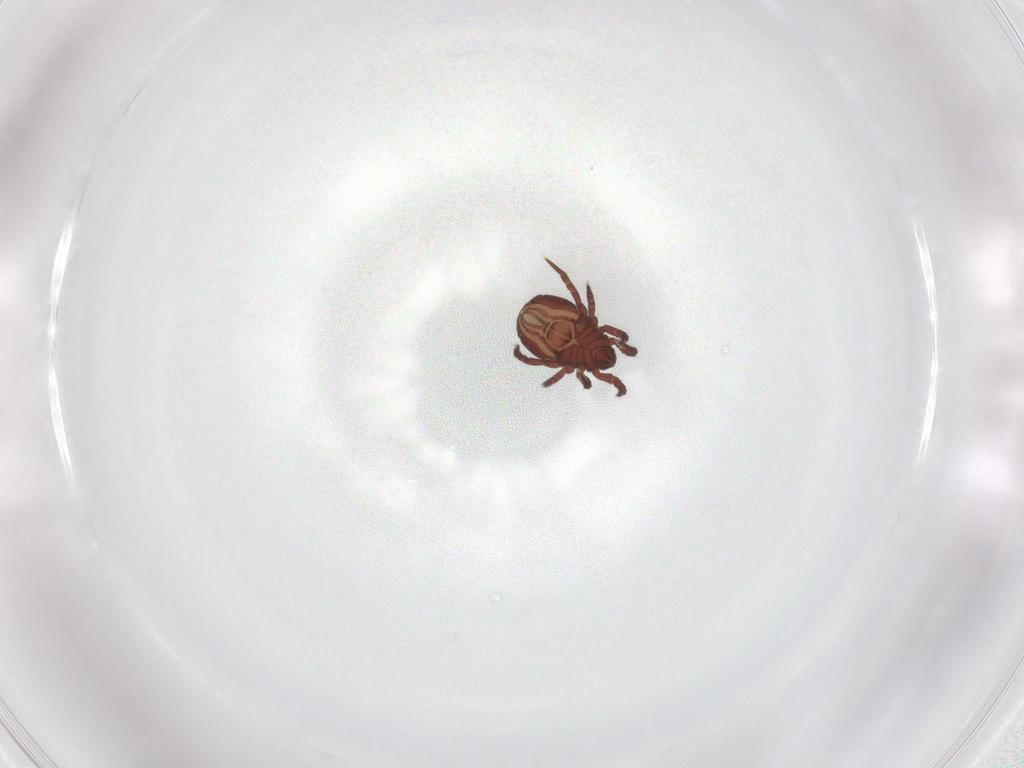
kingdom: Animalia
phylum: Arthropoda
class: Arachnida
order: Sarcoptiformes
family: Nothridae
